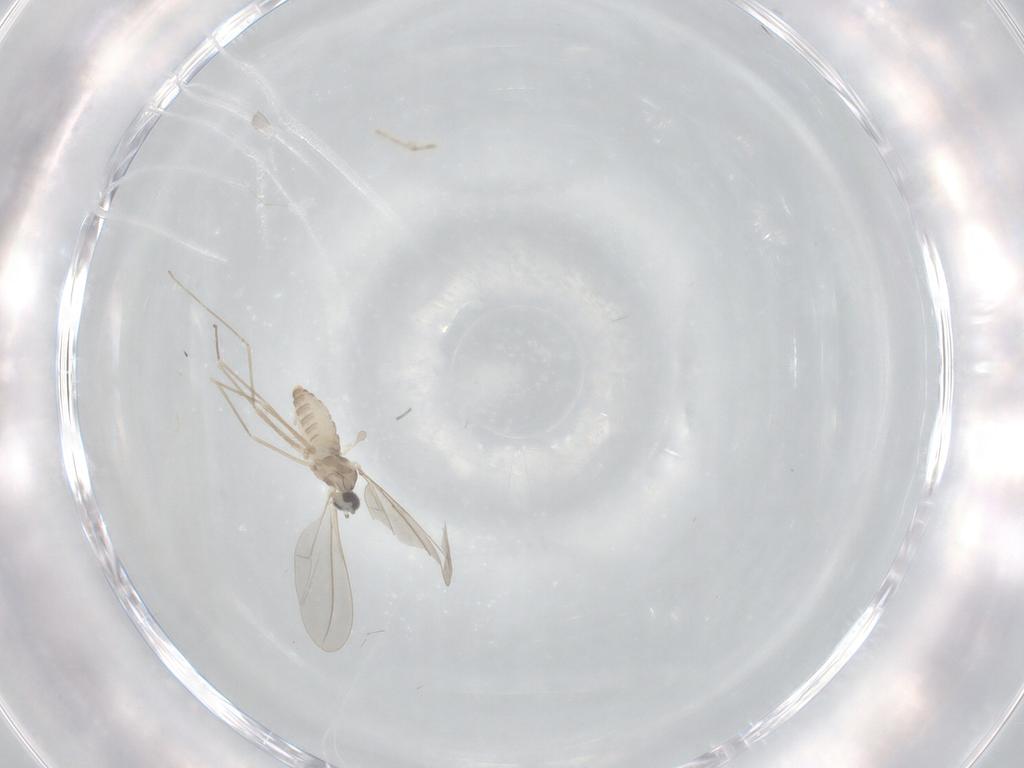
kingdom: Animalia
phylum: Arthropoda
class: Insecta
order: Diptera
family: Cecidomyiidae
